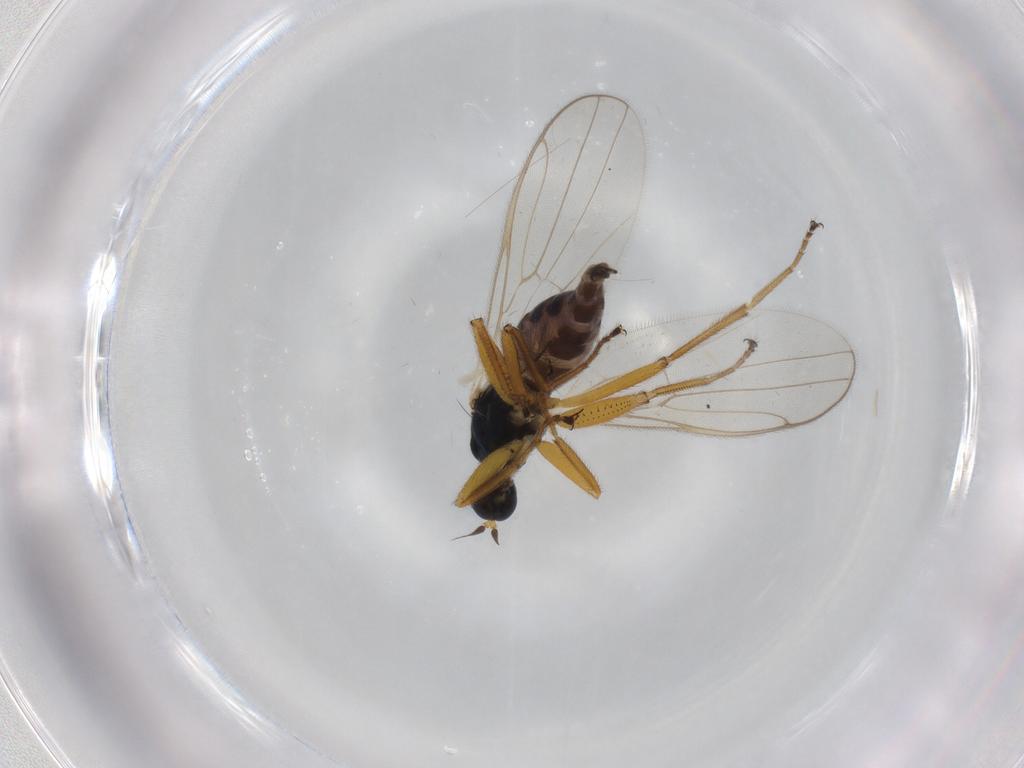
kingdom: Animalia
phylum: Arthropoda
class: Insecta
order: Diptera
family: Hybotidae
